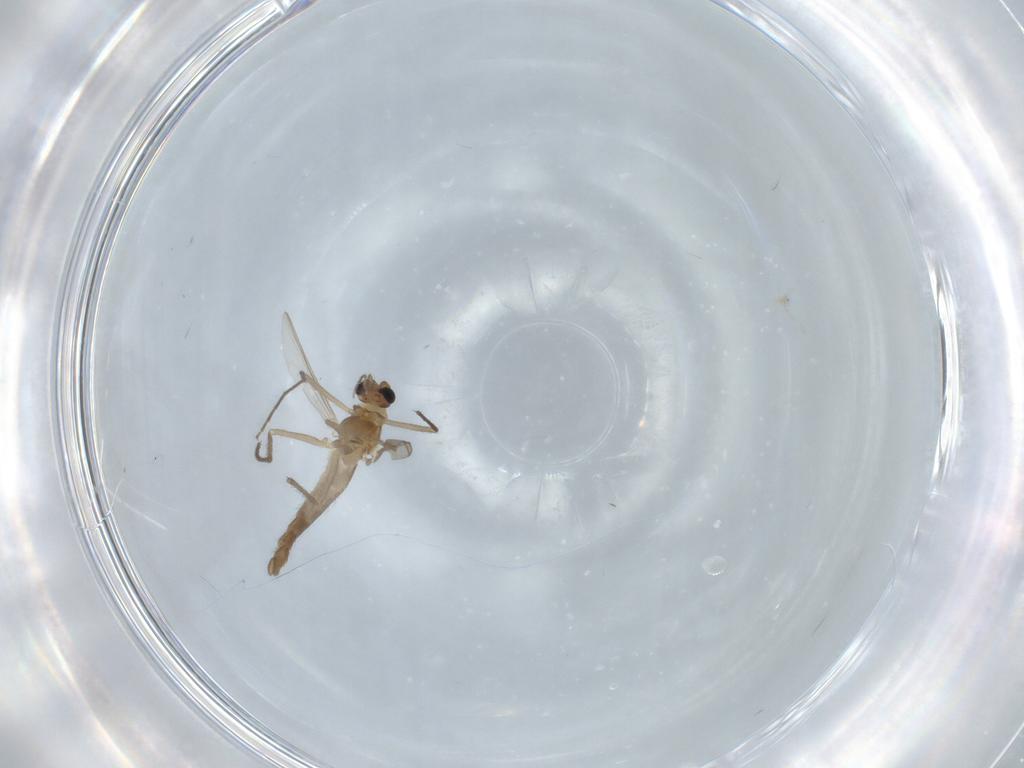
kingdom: Animalia
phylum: Arthropoda
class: Insecta
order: Diptera
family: Chironomidae
